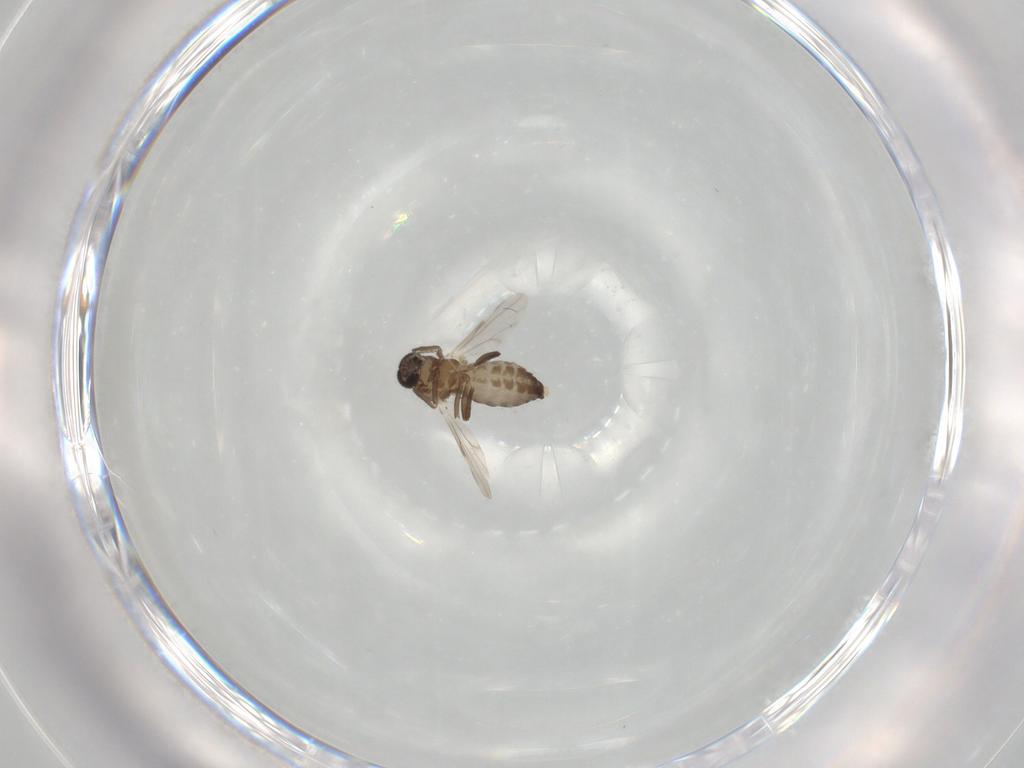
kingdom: Animalia
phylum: Arthropoda
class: Insecta
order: Diptera
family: Ceratopogonidae
